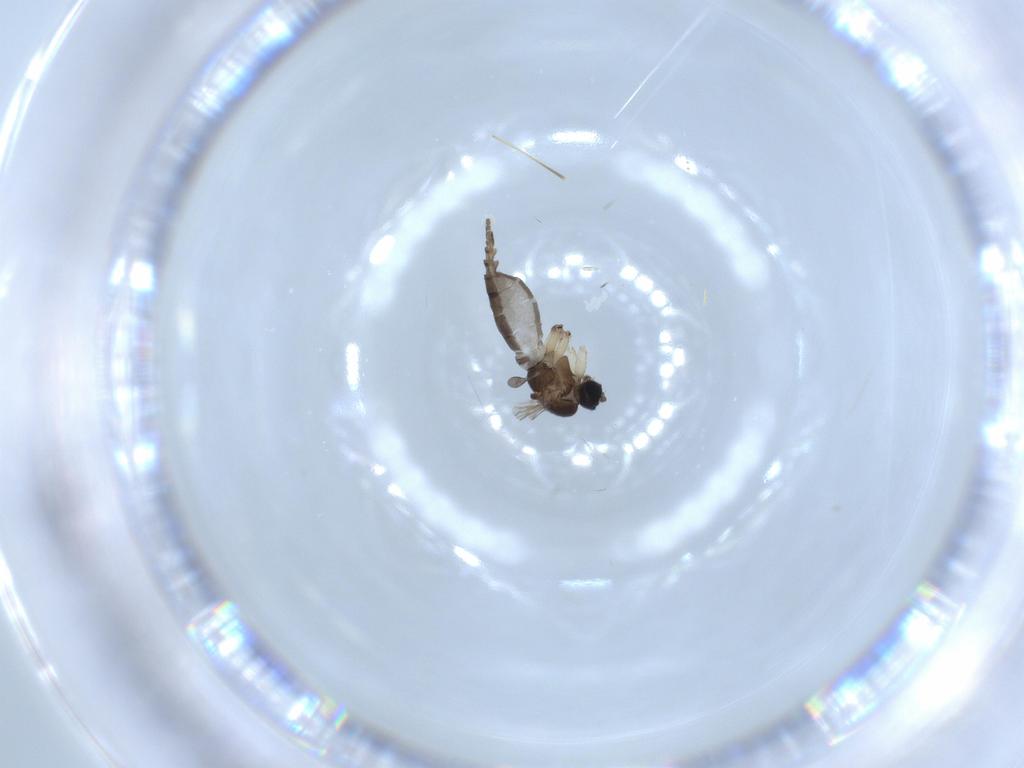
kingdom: Animalia
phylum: Arthropoda
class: Insecta
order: Diptera
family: Sciaridae
